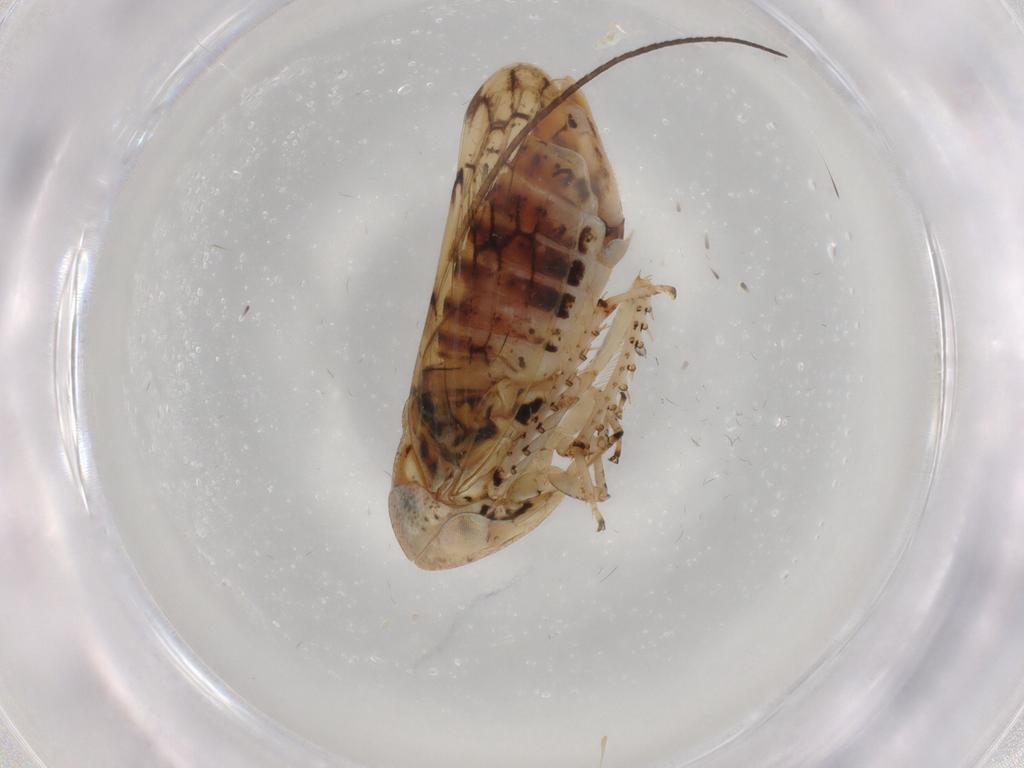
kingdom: Animalia
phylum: Arthropoda
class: Insecta
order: Hemiptera
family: Cicadellidae
